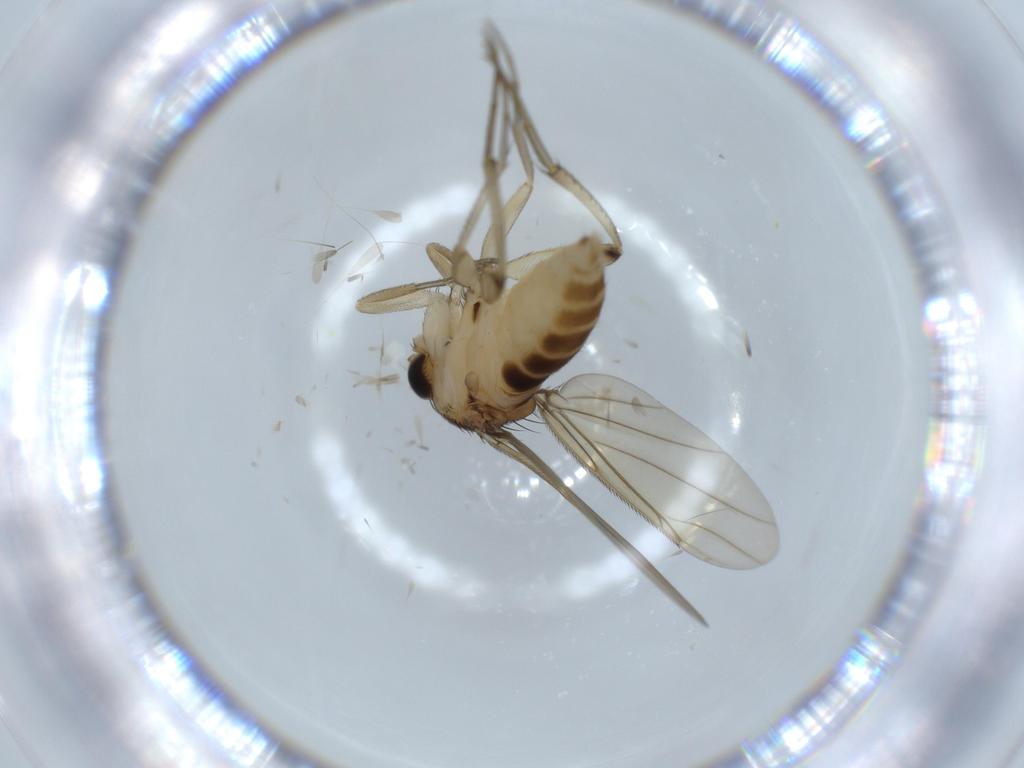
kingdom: Animalia
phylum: Arthropoda
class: Insecta
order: Diptera
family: Phoridae
